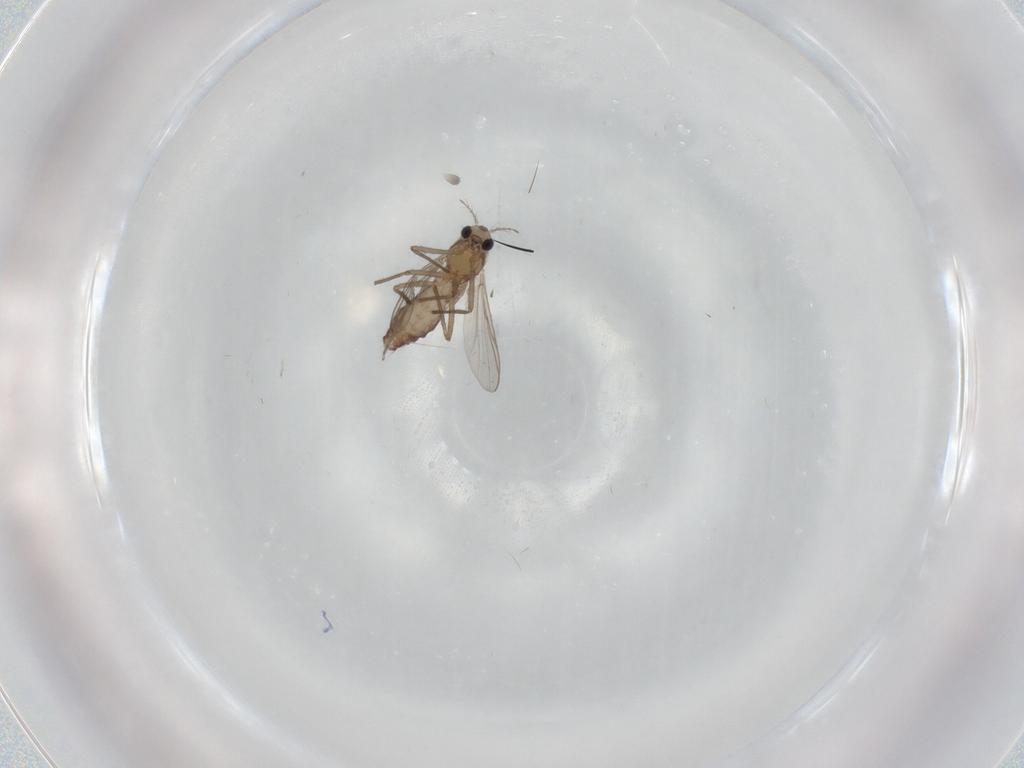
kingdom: Animalia
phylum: Arthropoda
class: Insecta
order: Diptera
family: Chironomidae
